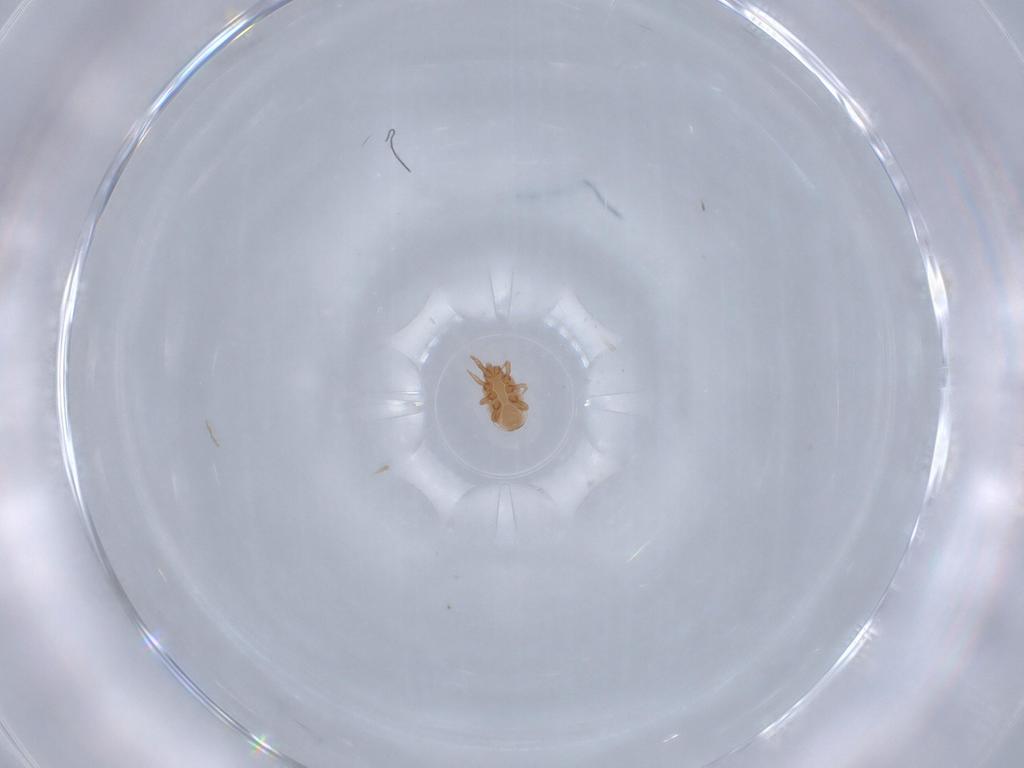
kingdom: Animalia
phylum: Arthropoda
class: Arachnida
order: Mesostigmata
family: Dinychidae
